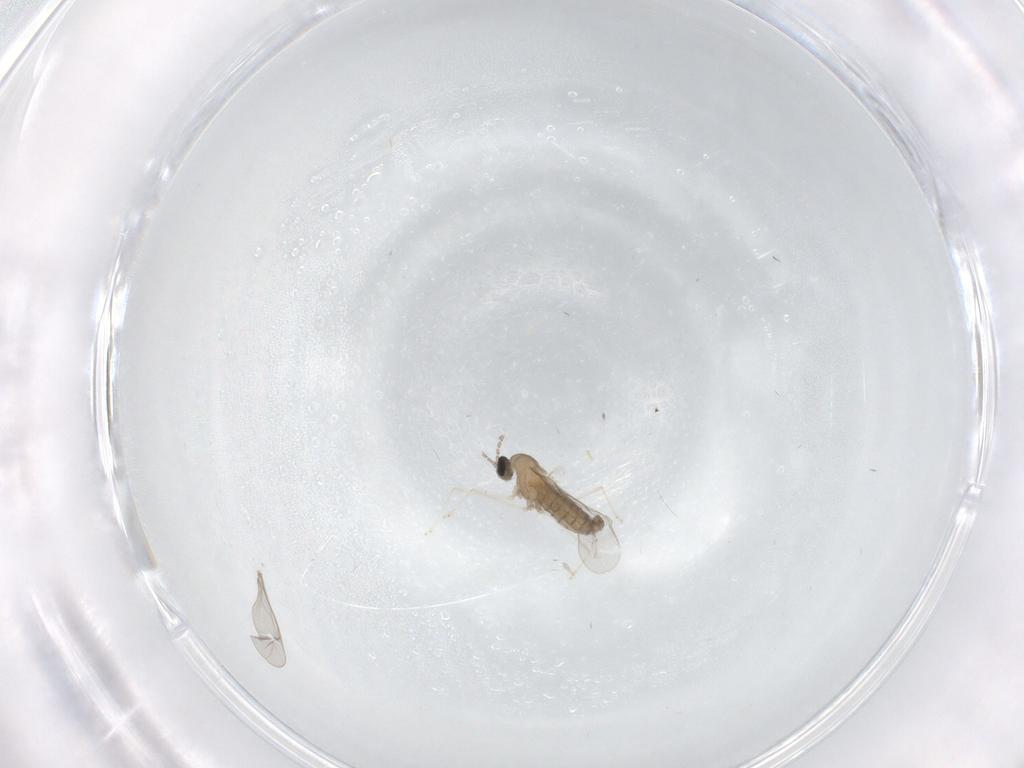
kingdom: Animalia
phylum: Arthropoda
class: Insecta
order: Diptera
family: Cecidomyiidae
